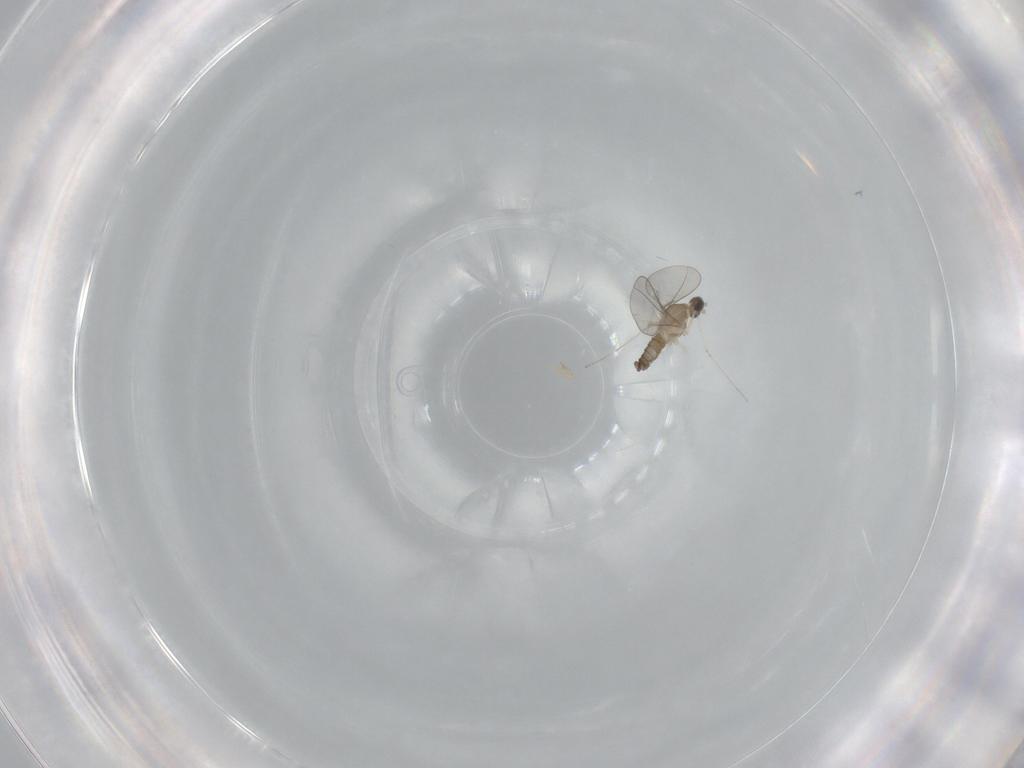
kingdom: Animalia
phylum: Arthropoda
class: Insecta
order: Diptera
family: Cecidomyiidae
